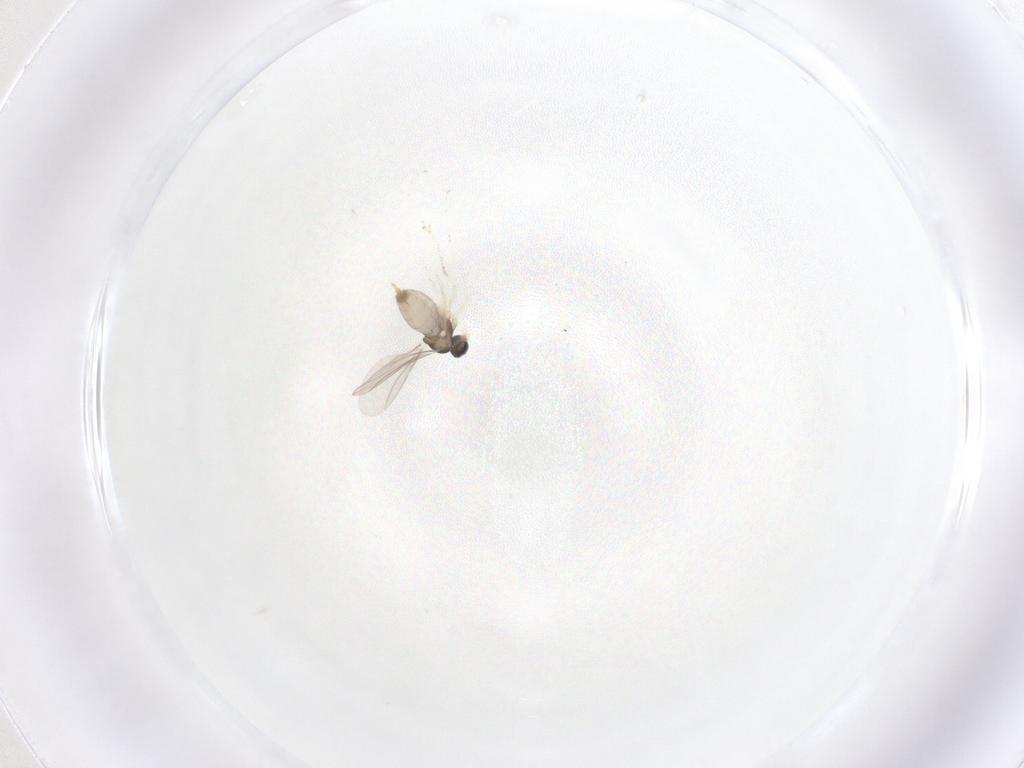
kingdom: Animalia
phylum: Arthropoda
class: Insecta
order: Diptera
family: Cecidomyiidae
